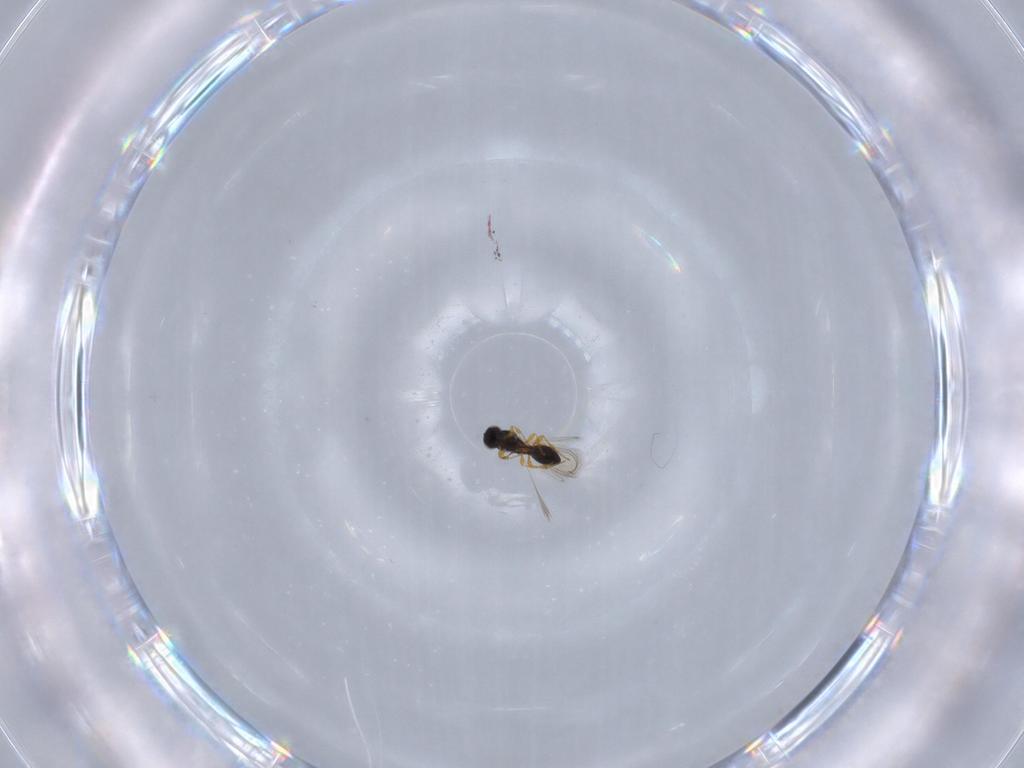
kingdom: Animalia
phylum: Arthropoda
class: Insecta
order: Hymenoptera
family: Platygastridae
